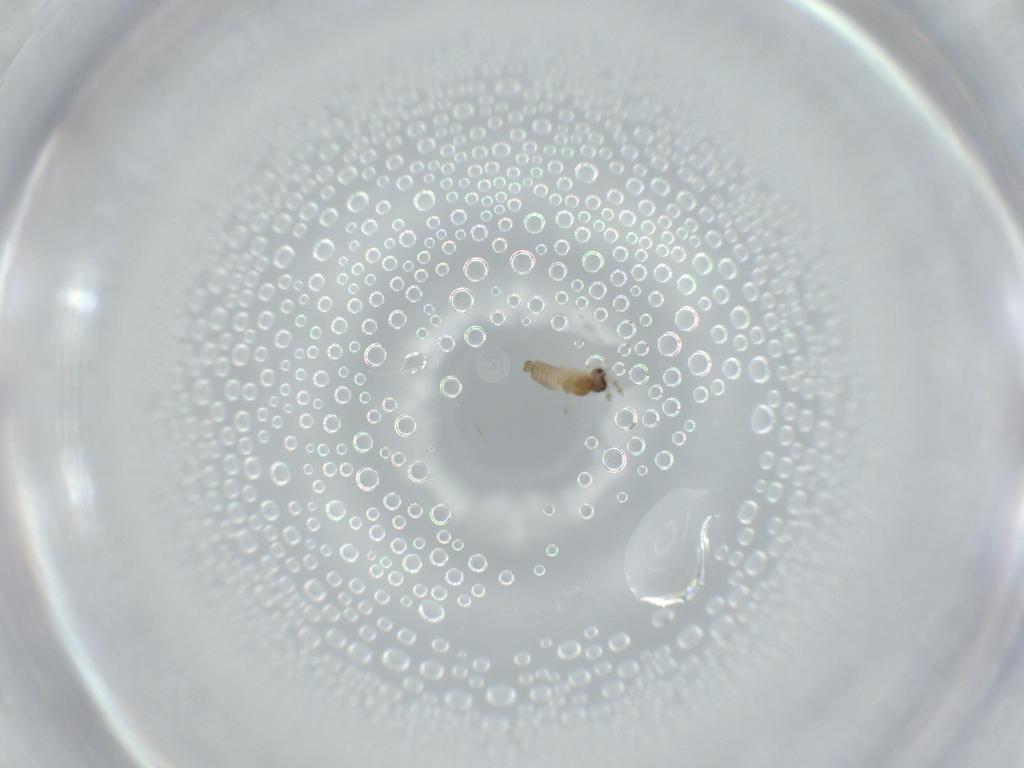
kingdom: Animalia
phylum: Arthropoda
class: Insecta
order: Diptera
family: Cecidomyiidae
